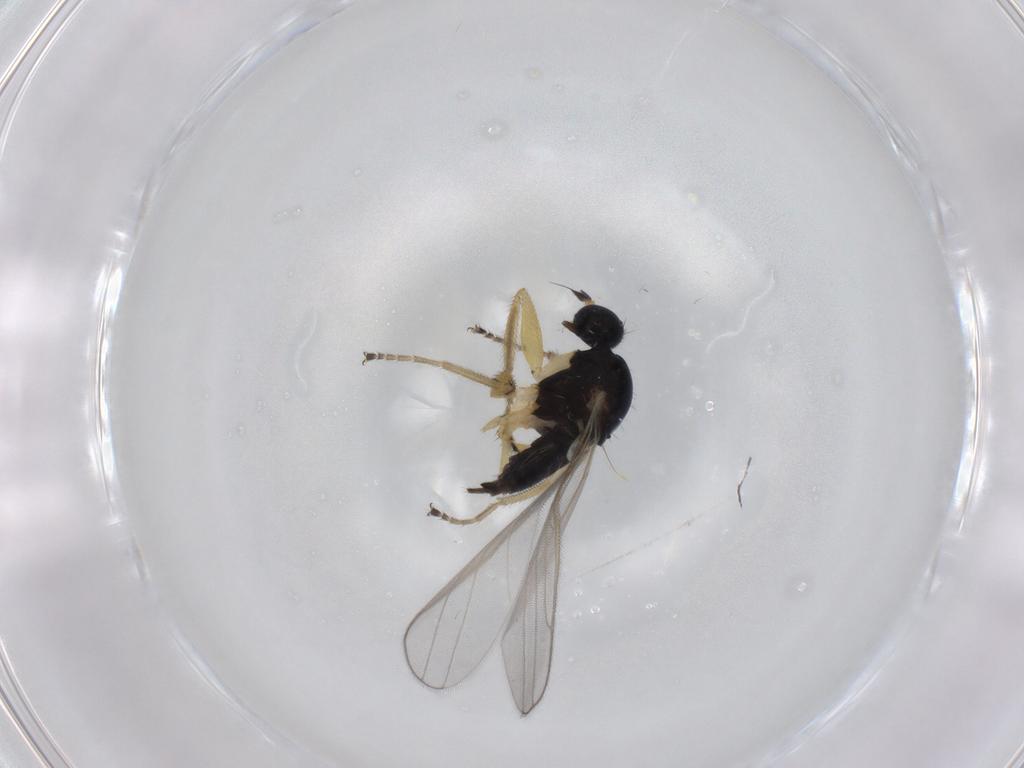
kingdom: Animalia
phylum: Arthropoda
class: Insecta
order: Diptera
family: Hybotidae
